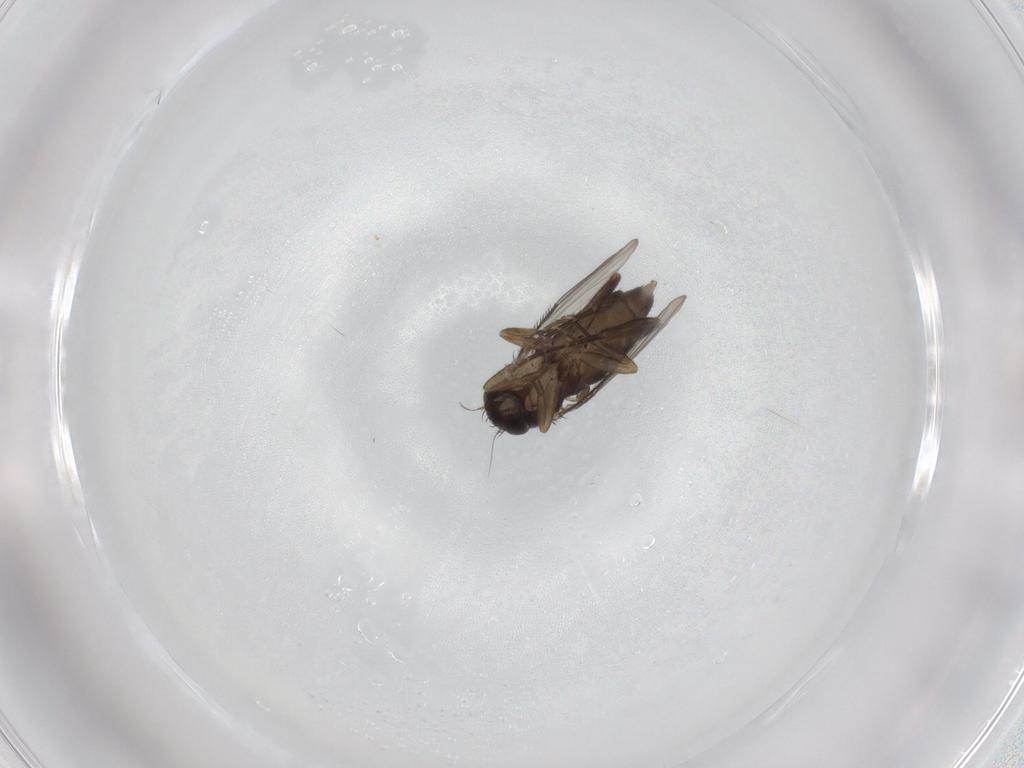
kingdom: Animalia
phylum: Arthropoda
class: Insecta
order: Diptera
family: Phoridae
